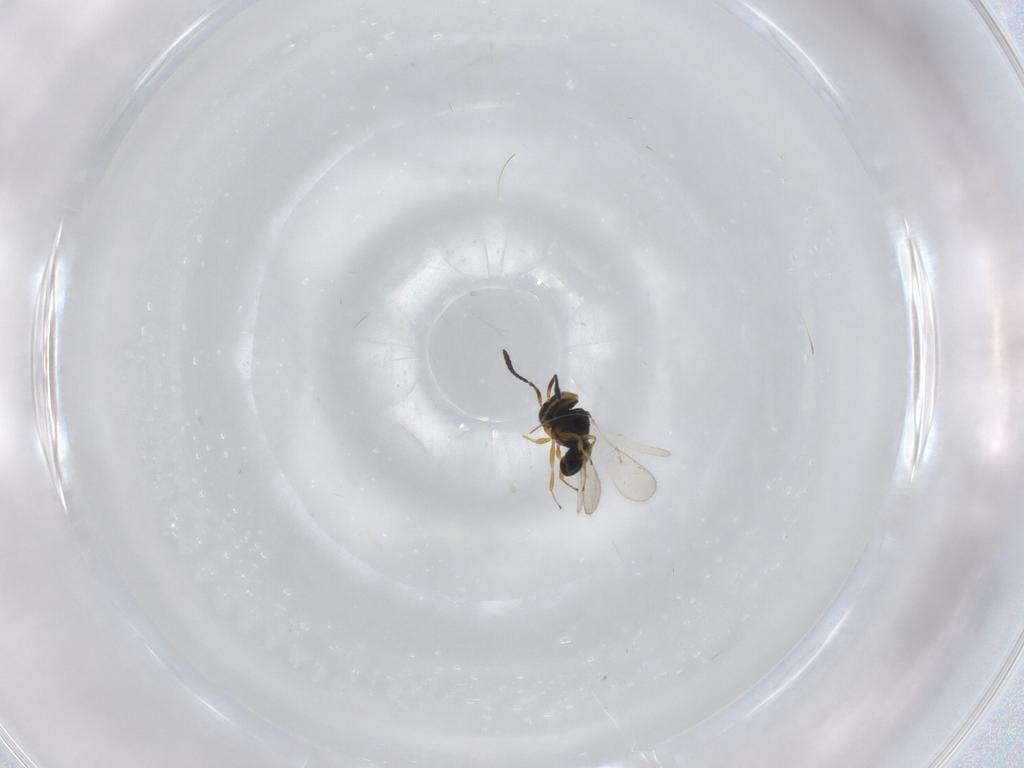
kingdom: Animalia
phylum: Arthropoda
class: Insecta
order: Hymenoptera
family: Scelionidae
